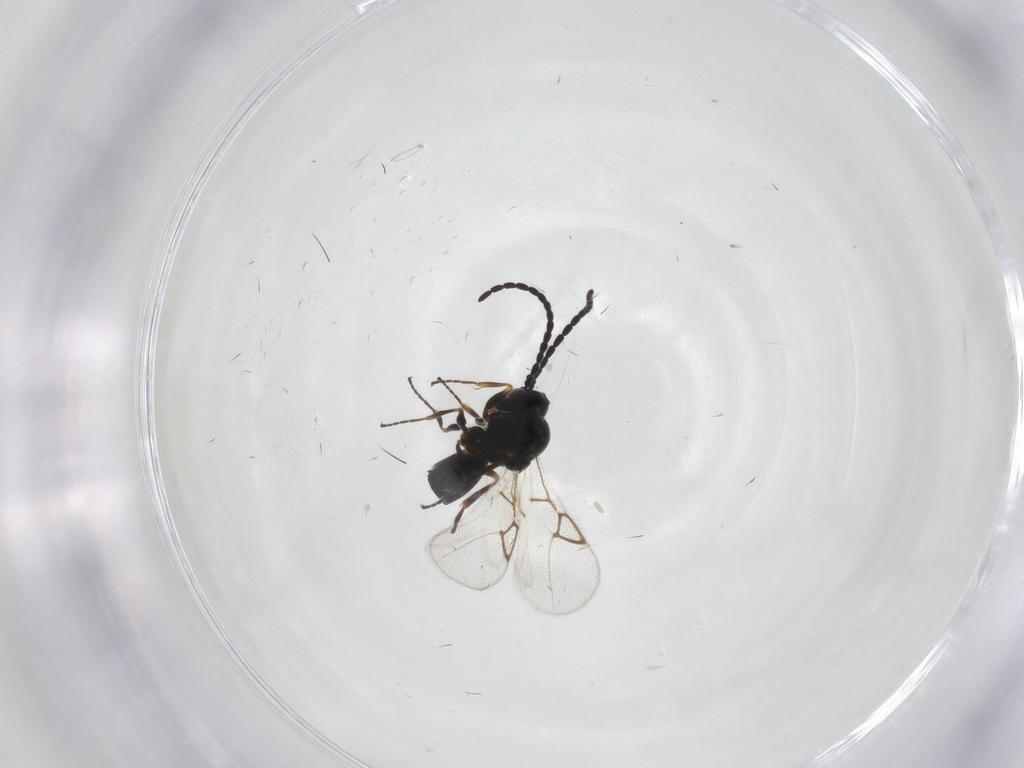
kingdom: Animalia
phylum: Arthropoda
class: Insecta
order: Hymenoptera
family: Figitidae
